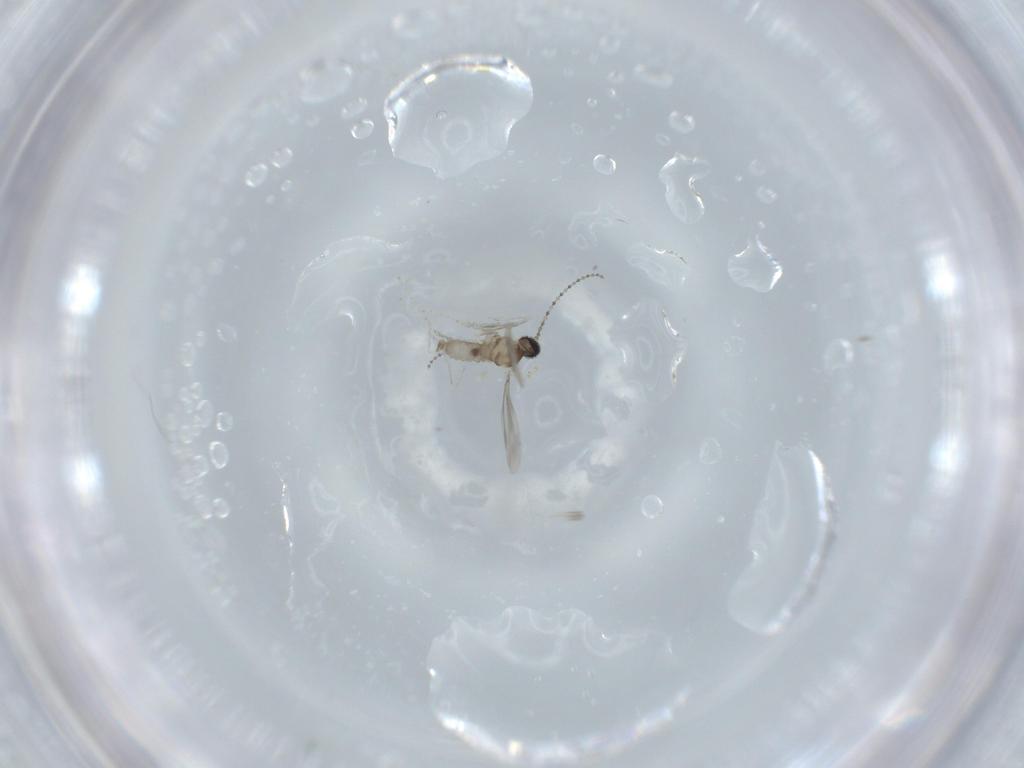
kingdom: Animalia
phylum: Arthropoda
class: Insecta
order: Diptera
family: Cecidomyiidae
